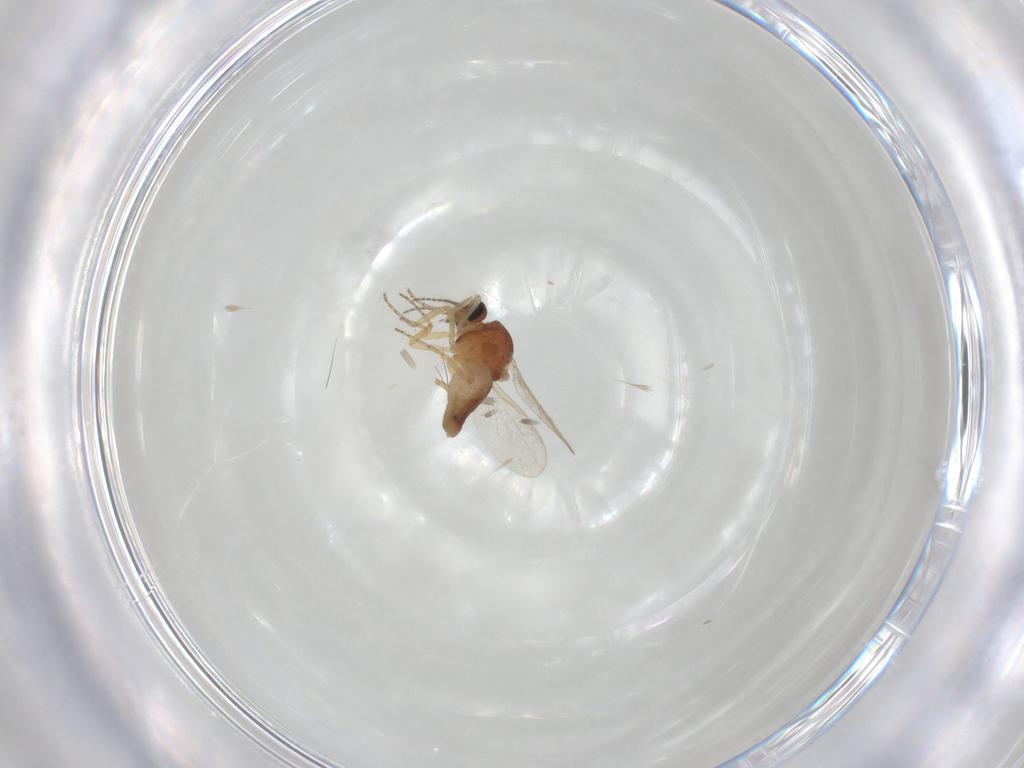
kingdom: Animalia
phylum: Arthropoda
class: Insecta
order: Diptera
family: Ceratopogonidae
